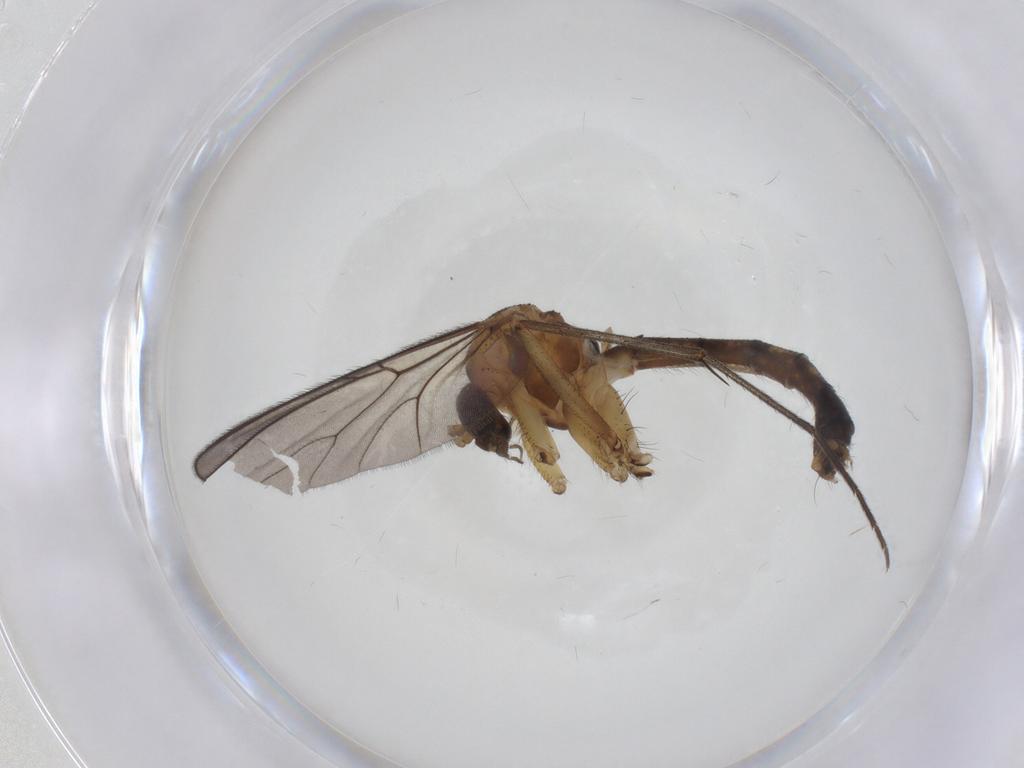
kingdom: Animalia
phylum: Arthropoda
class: Insecta
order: Diptera
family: Mycetophilidae
